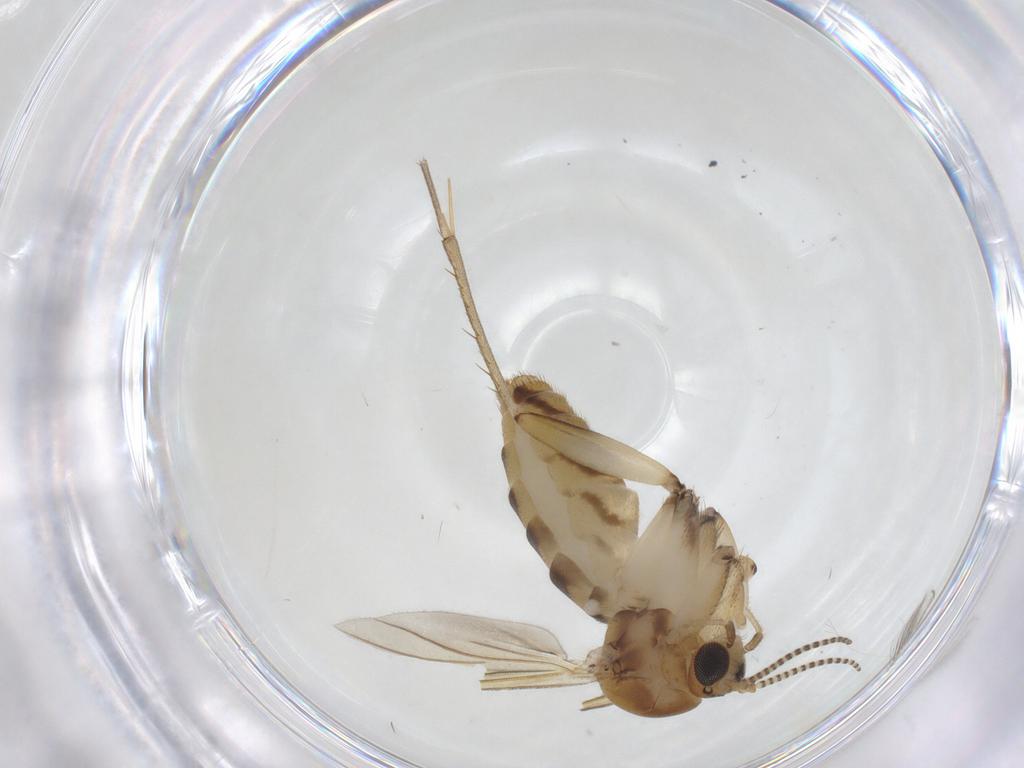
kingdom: Animalia
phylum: Arthropoda
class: Insecta
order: Diptera
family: Mycetophilidae
